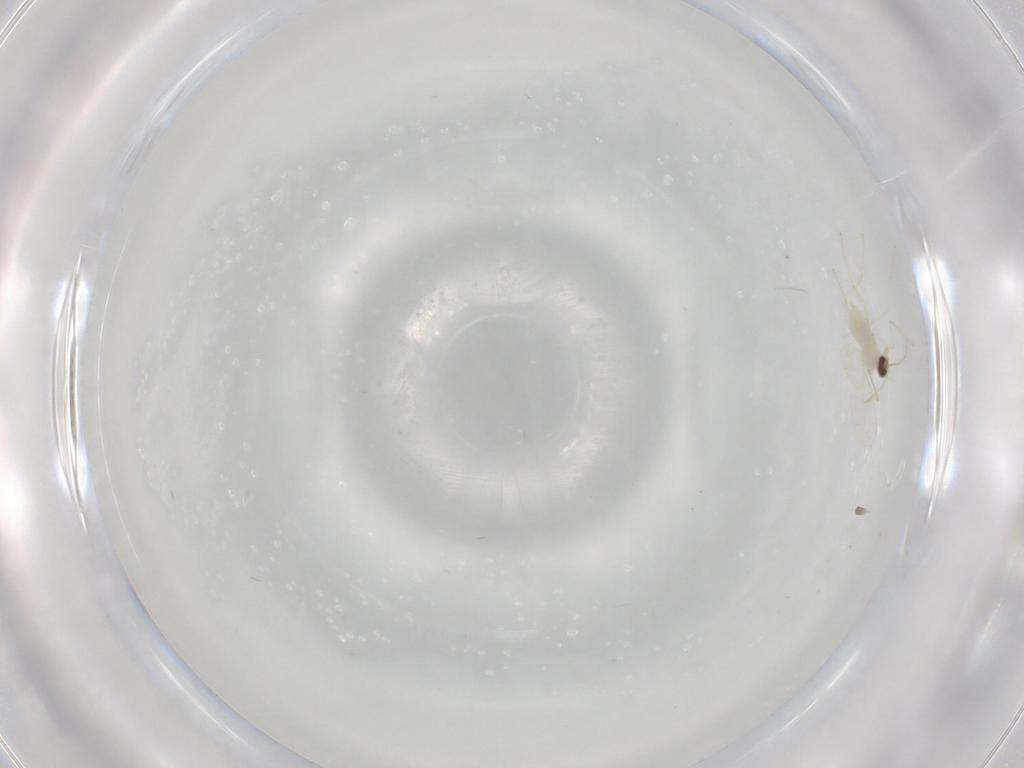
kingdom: Animalia
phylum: Arthropoda
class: Insecta
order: Diptera
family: Cecidomyiidae
